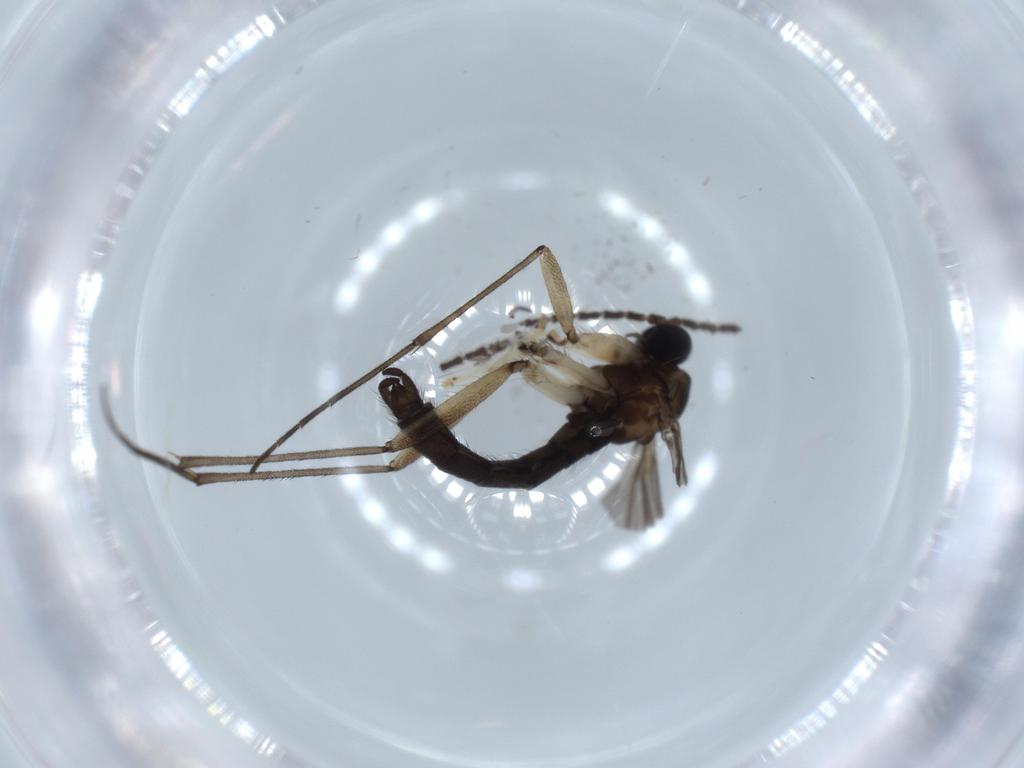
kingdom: Animalia
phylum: Arthropoda
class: Insecta
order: Diptera
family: Sciaridae
